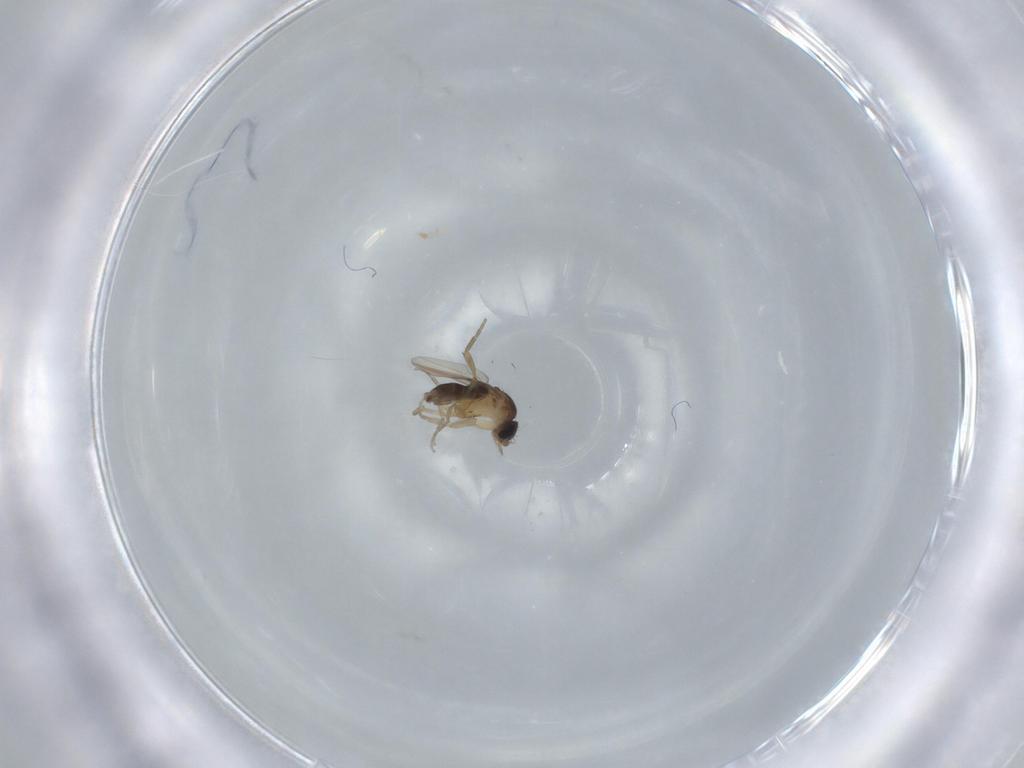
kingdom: Animalia
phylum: Arthropoda
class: Insecta
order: Diptera
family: Phoridae
